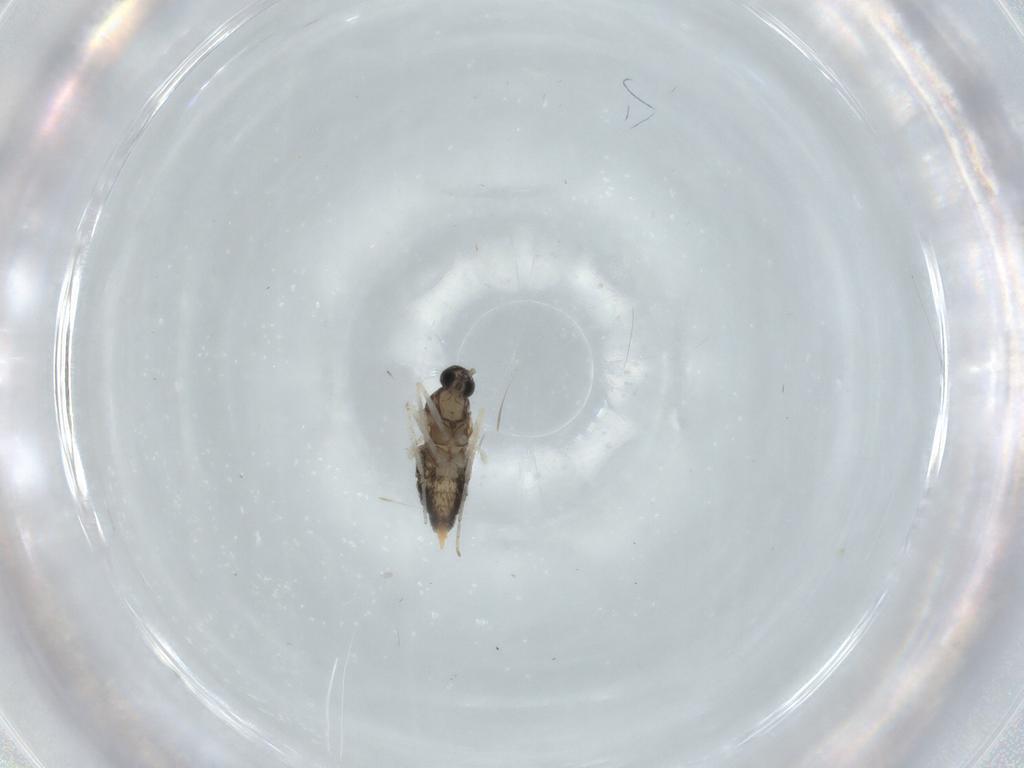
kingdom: Animalia
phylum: Arthropoda
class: Insecta
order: Diptera
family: Cecidomyiidae
